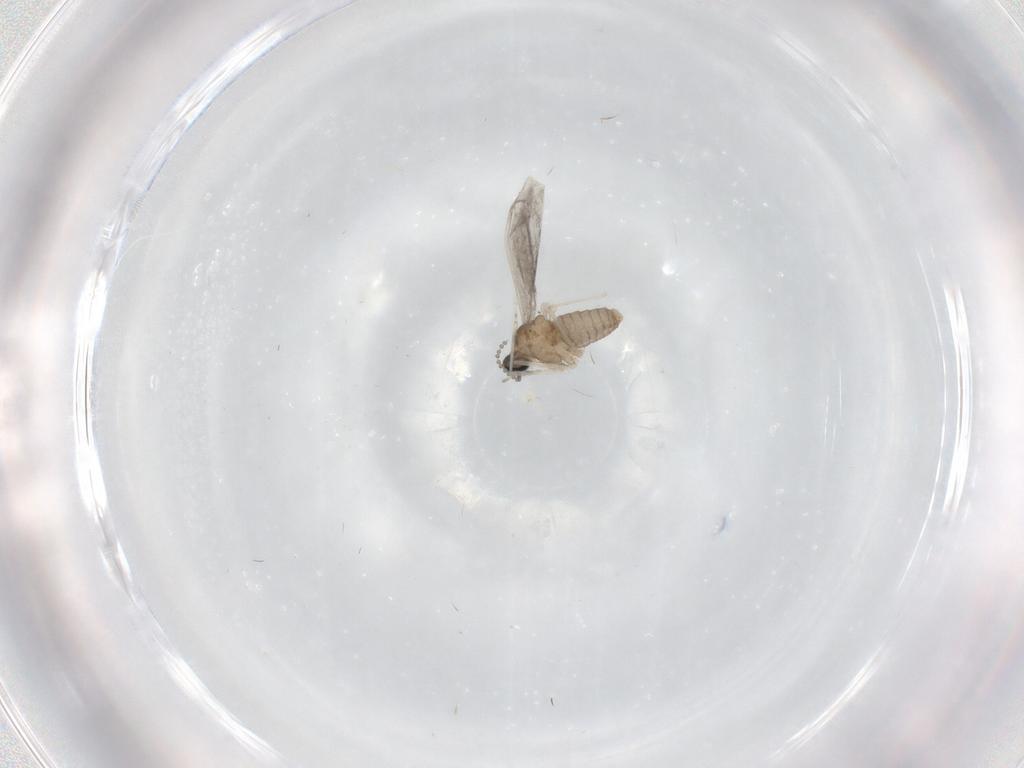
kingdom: Animalia
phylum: Arthropoda
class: Insecta
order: Diptera
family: Cecidomyiidae
